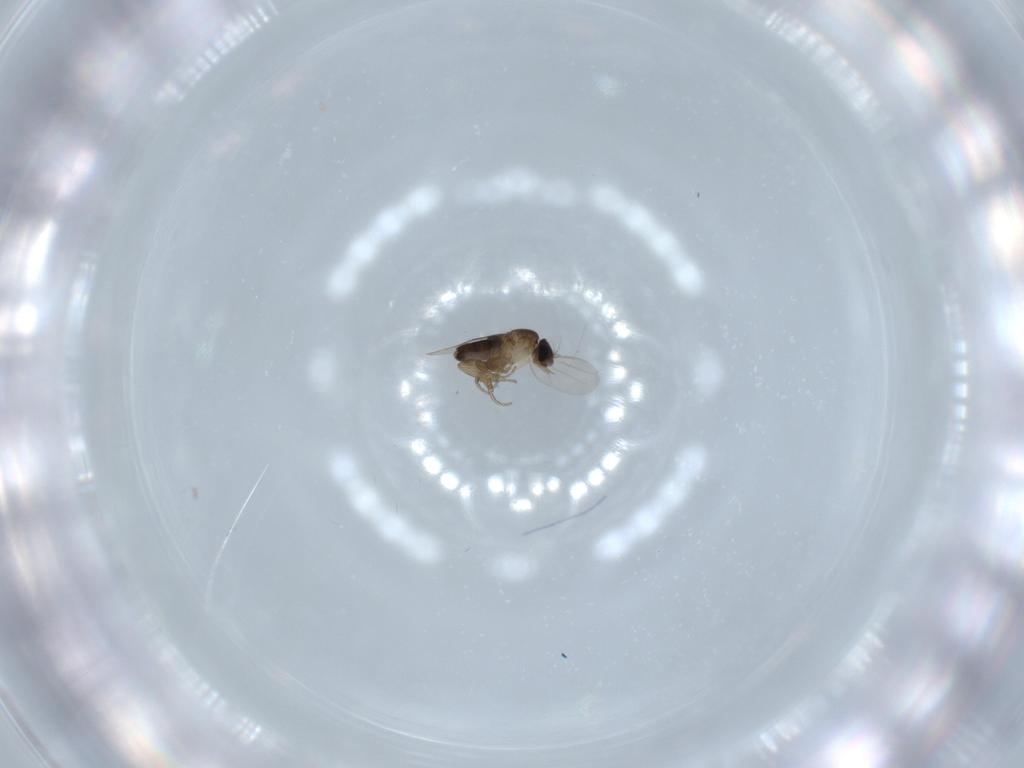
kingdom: Animalia
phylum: Arthropoda
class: Insecta
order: Diptera
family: Phoridae
